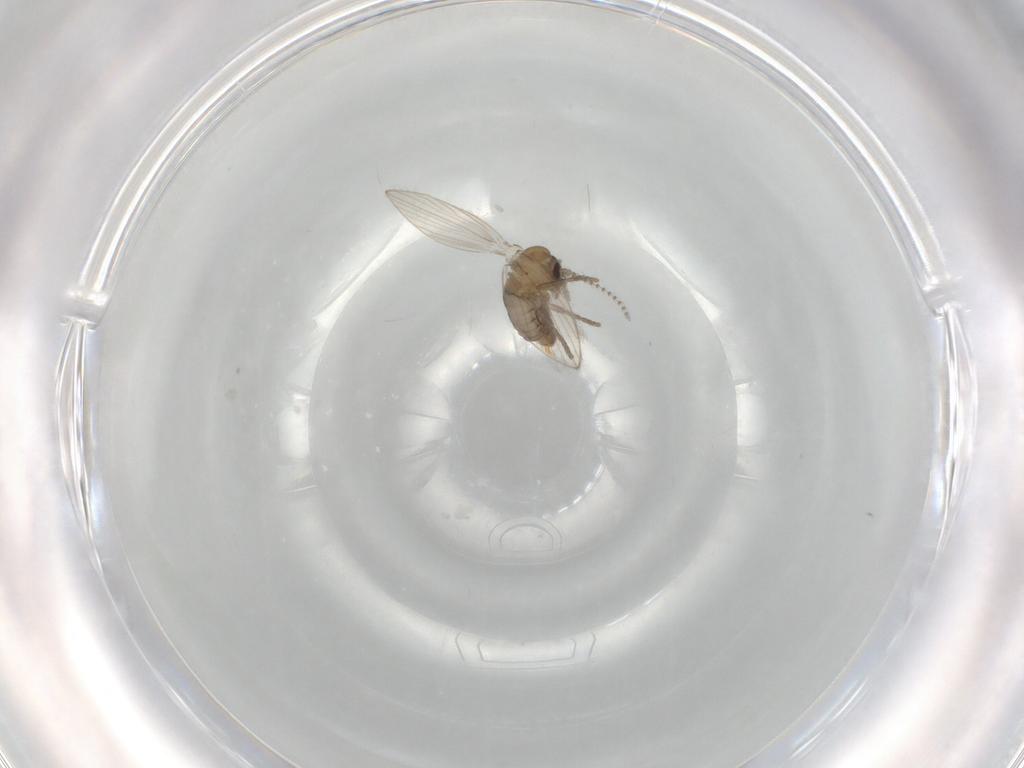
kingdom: Animalia
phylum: Arthropoda
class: Insecta
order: Diptera
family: Psychodidae
